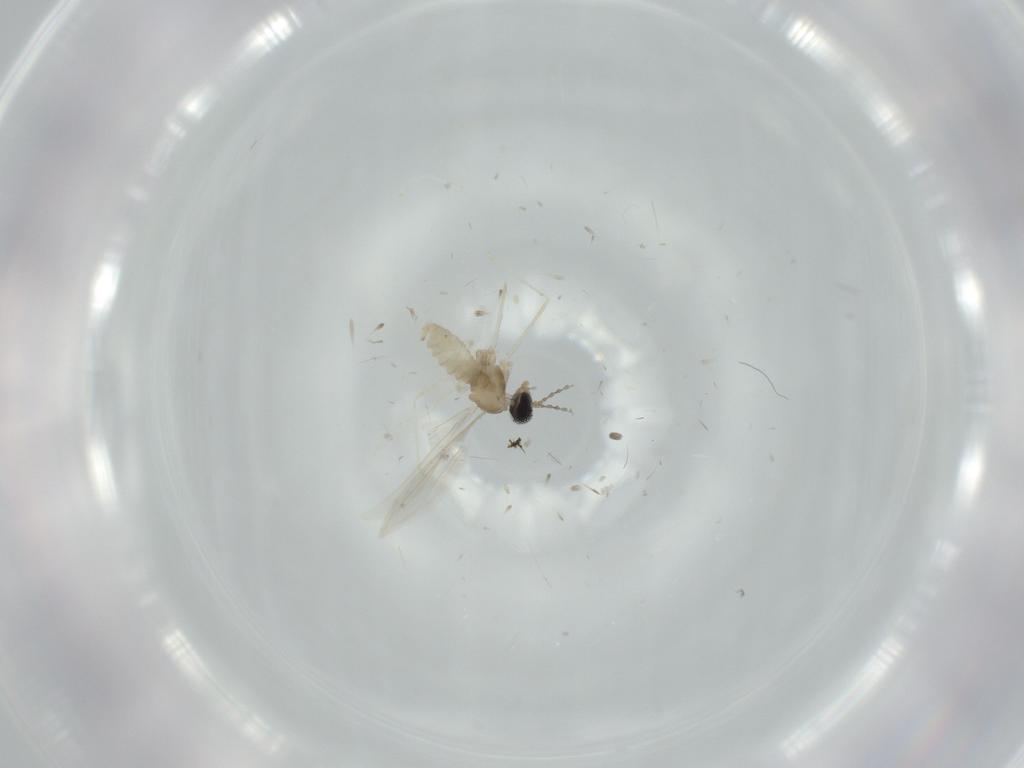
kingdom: Animalia
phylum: Arthropoda
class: Insecta
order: Diptera
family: Cecidomyiidae
